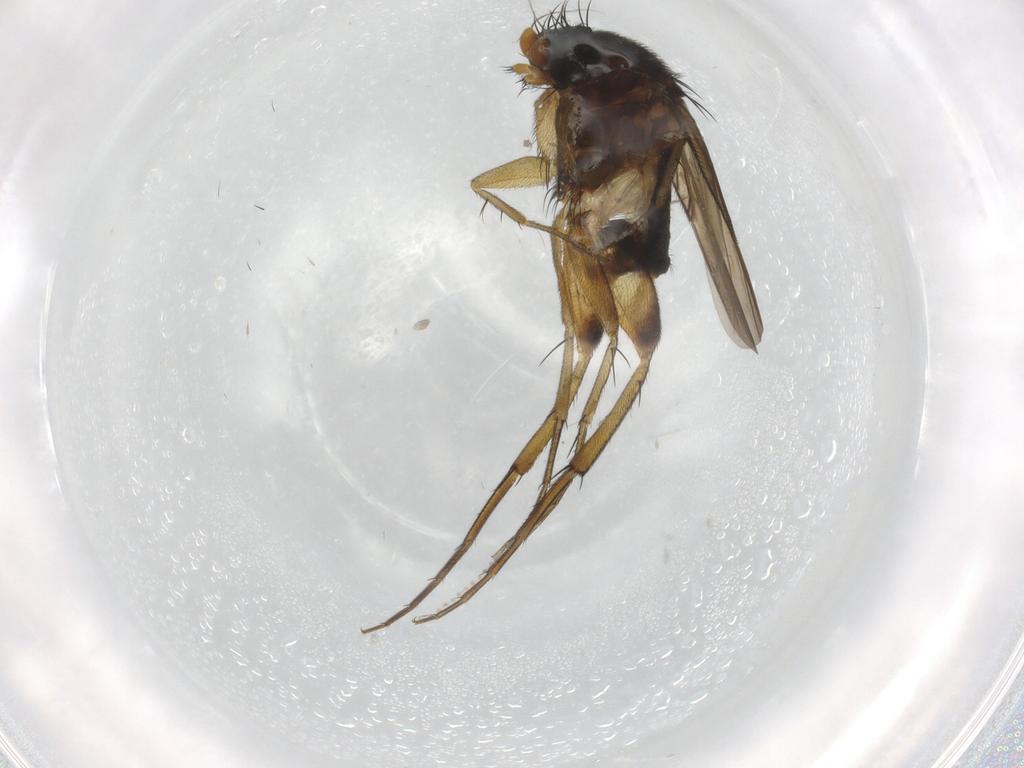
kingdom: Animalia
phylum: Arthropoda
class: Insecta
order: Diptera
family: Phoridae
